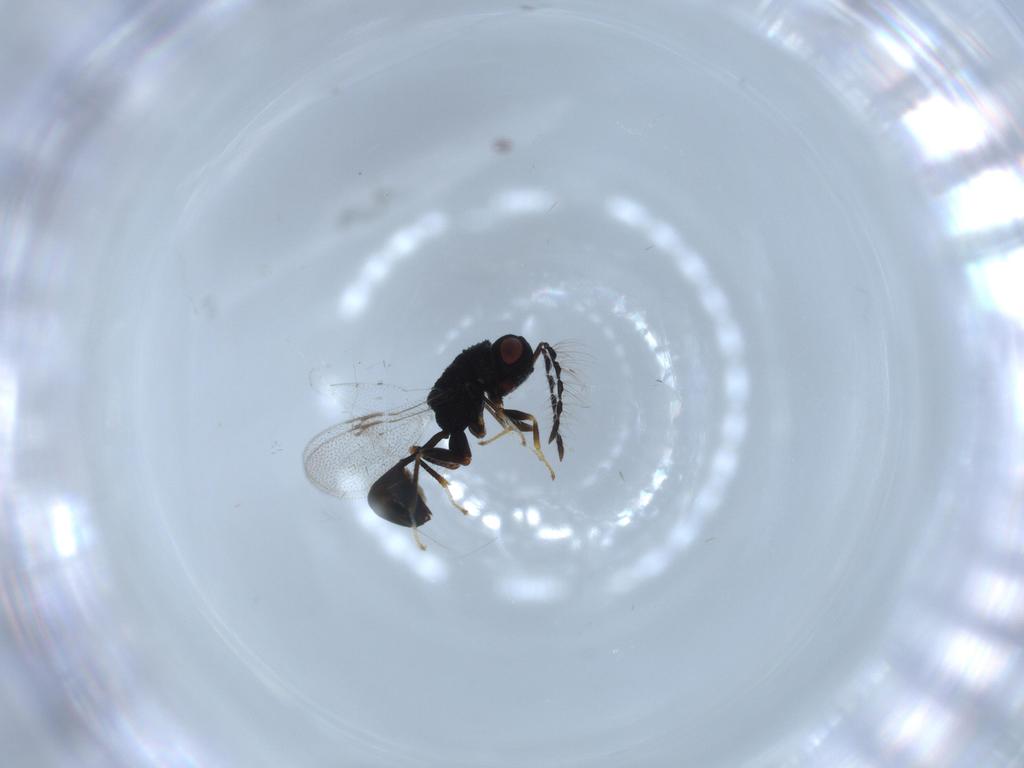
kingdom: Animalia
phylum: Arthropoda
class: Insecta
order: Hymenoptera
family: Eurytomidae
